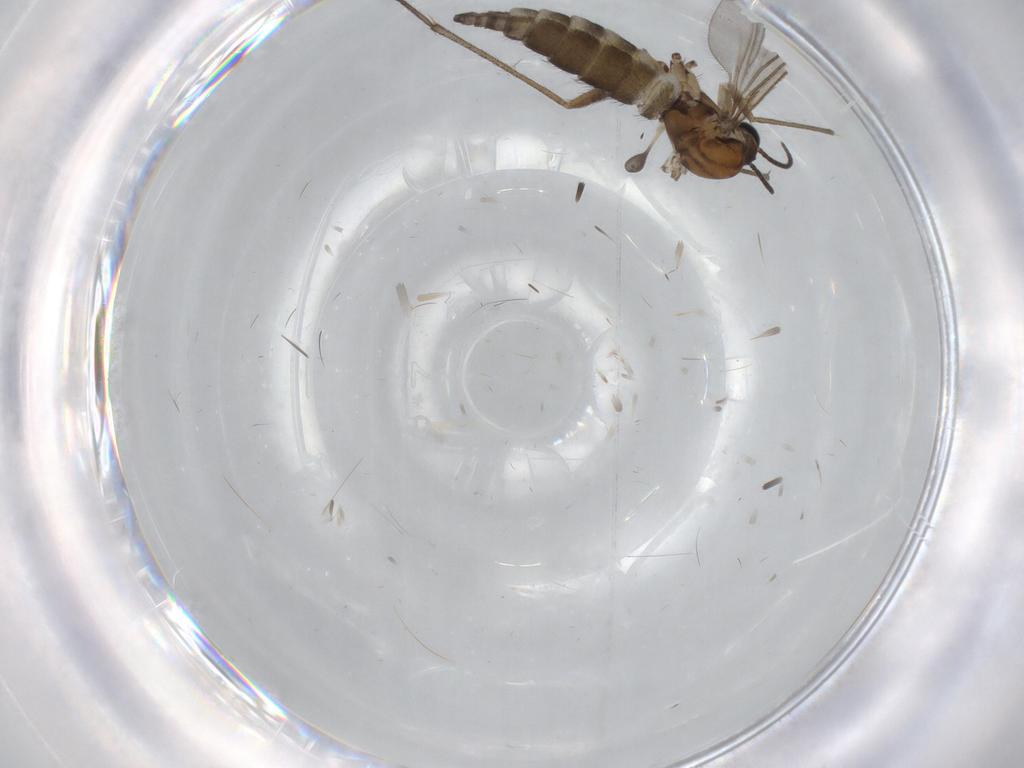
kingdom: Animalia
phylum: Arthropoda
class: Insecta
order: Diptera
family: Sciaridae
